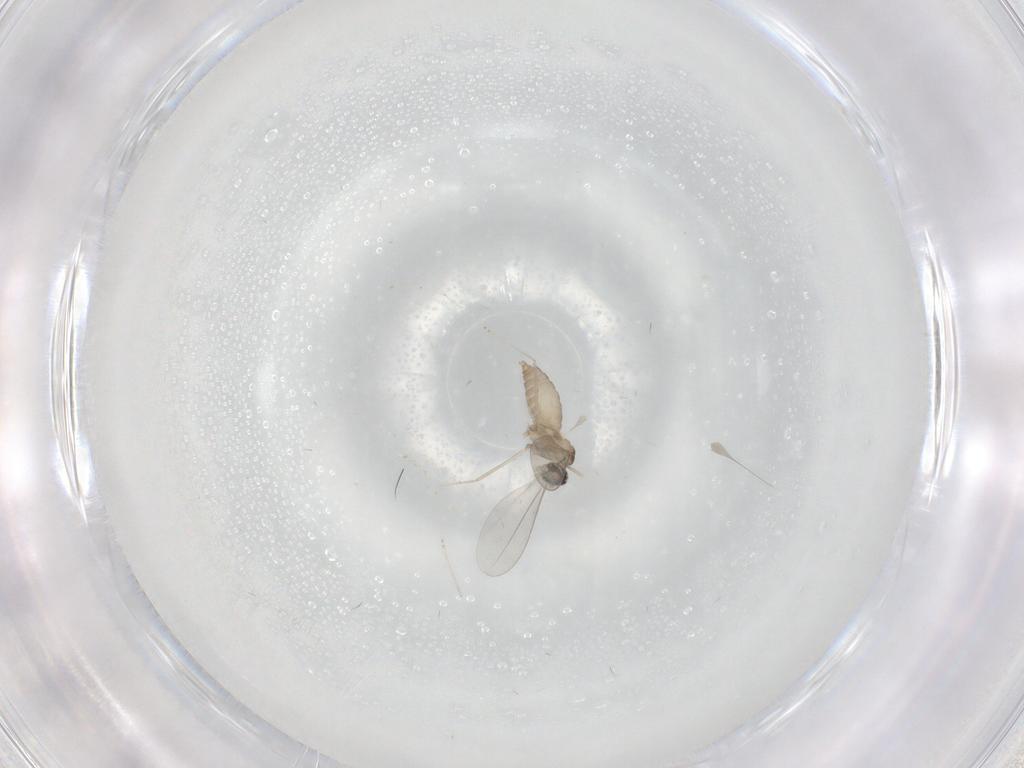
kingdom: Animalia
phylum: Arthropoda
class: Insecta
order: Diptera
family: Cecidomyiidae
